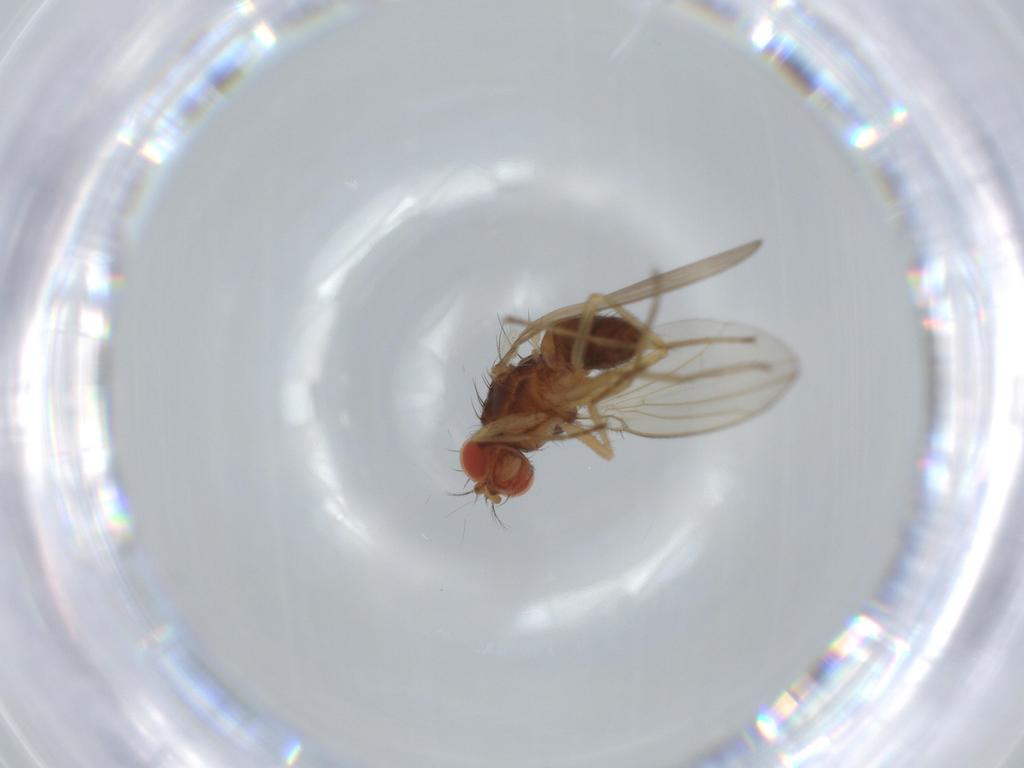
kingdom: Animalia
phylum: Arthropoda
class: Insecta
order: Diptera
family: Drosophilidae
